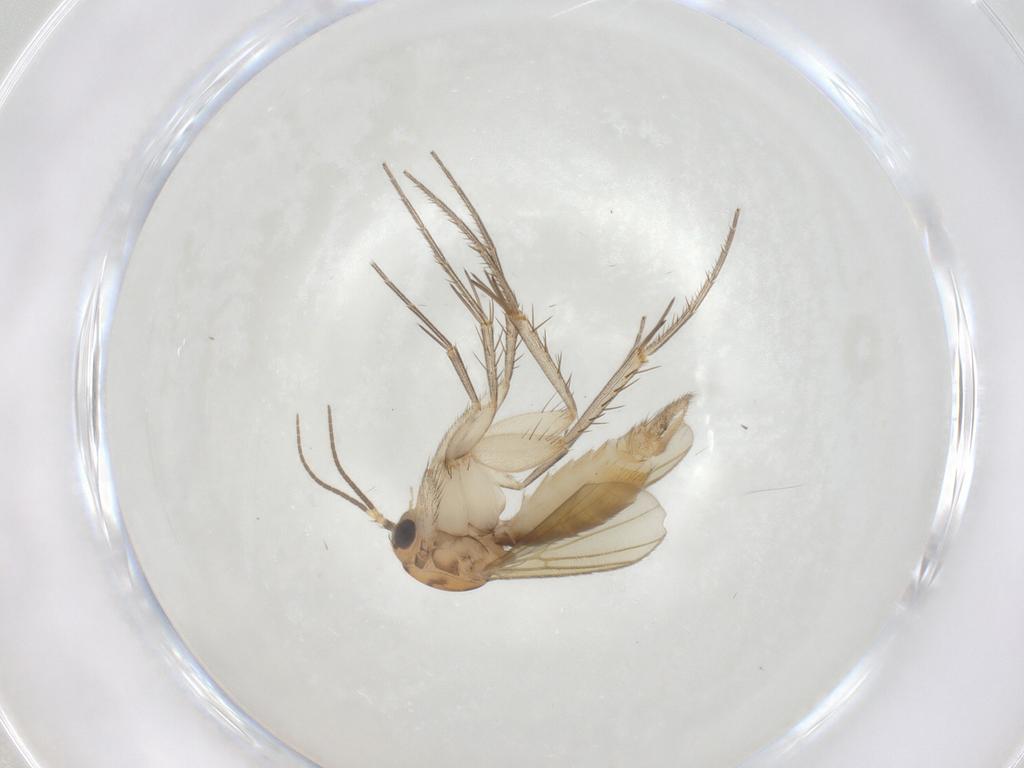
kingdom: Animalia
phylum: Arthropoda
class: Insecta
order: Diptera
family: Mycetophilidae
